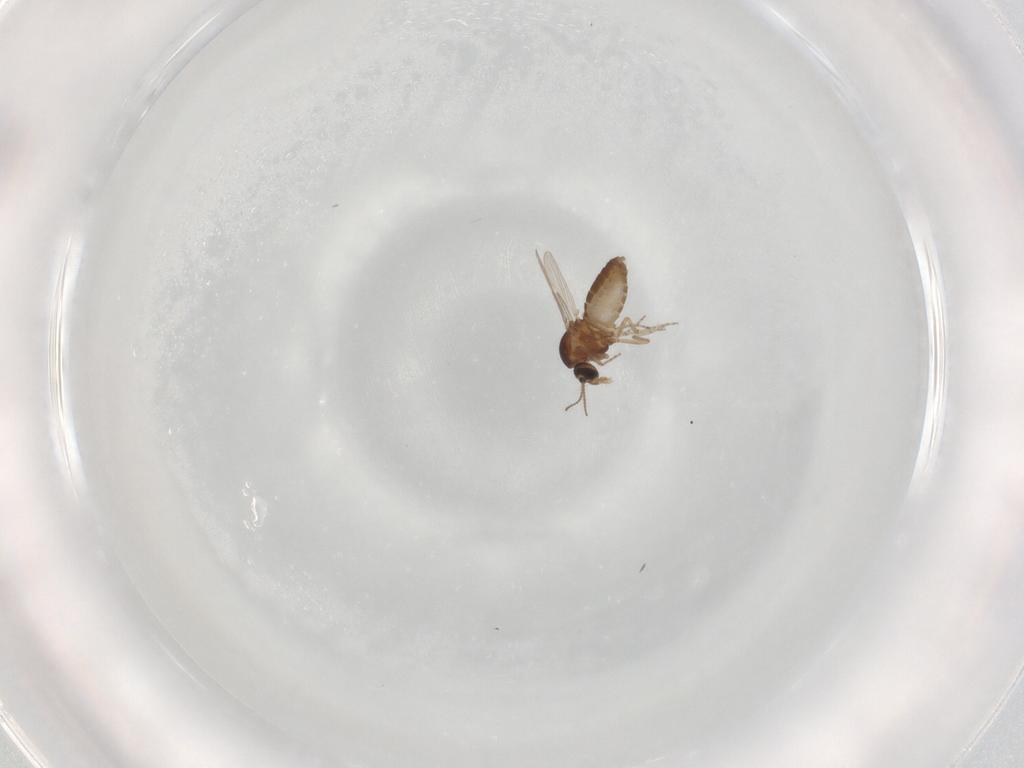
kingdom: Animalia
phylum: Arthropoda
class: Insecta
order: Diptera
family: Ceratopogonidae
